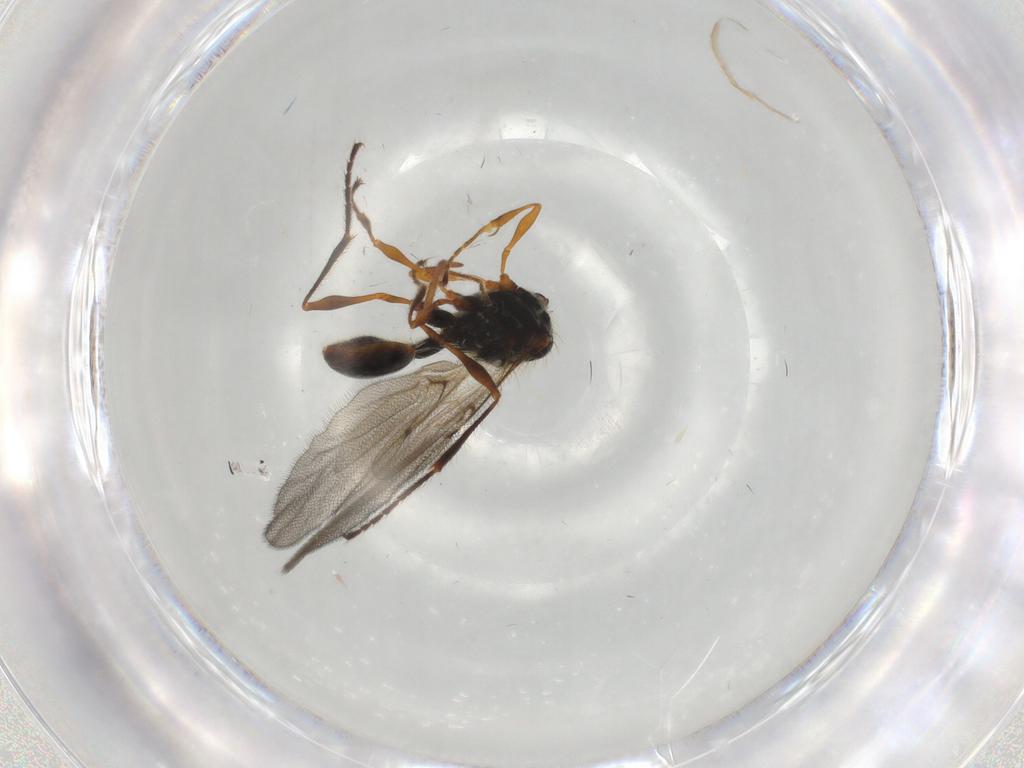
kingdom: Animalia
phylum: Arthropoda
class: Insecta
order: Hymenoptera
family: Diapriidae
